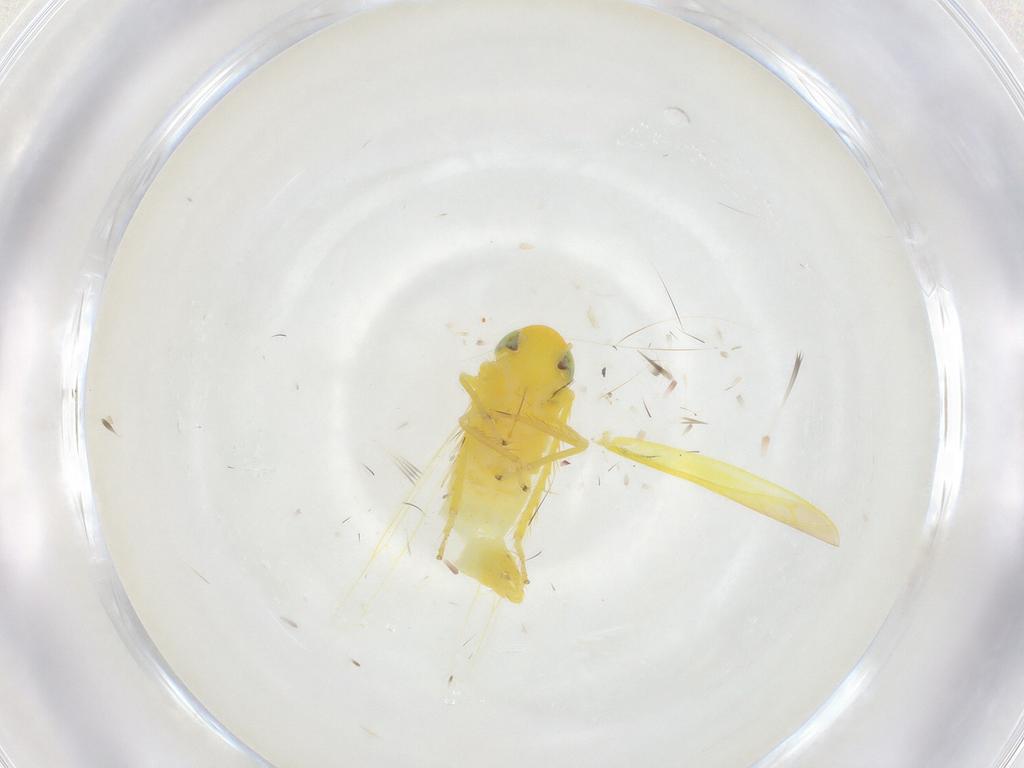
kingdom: Animalia
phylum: Arthropoda
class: Insecta
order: Hemiptera
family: Cicadellidae
